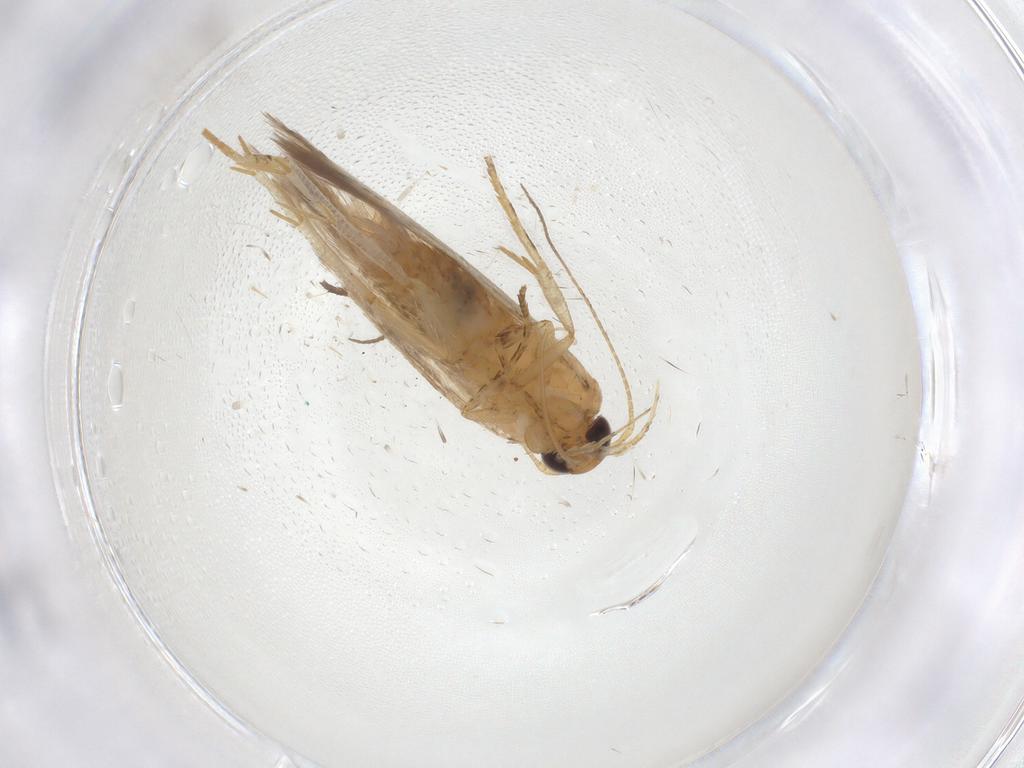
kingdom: Animalia
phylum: Arthropoda
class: Insecta
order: Lepidoptera
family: Gelechiidae
